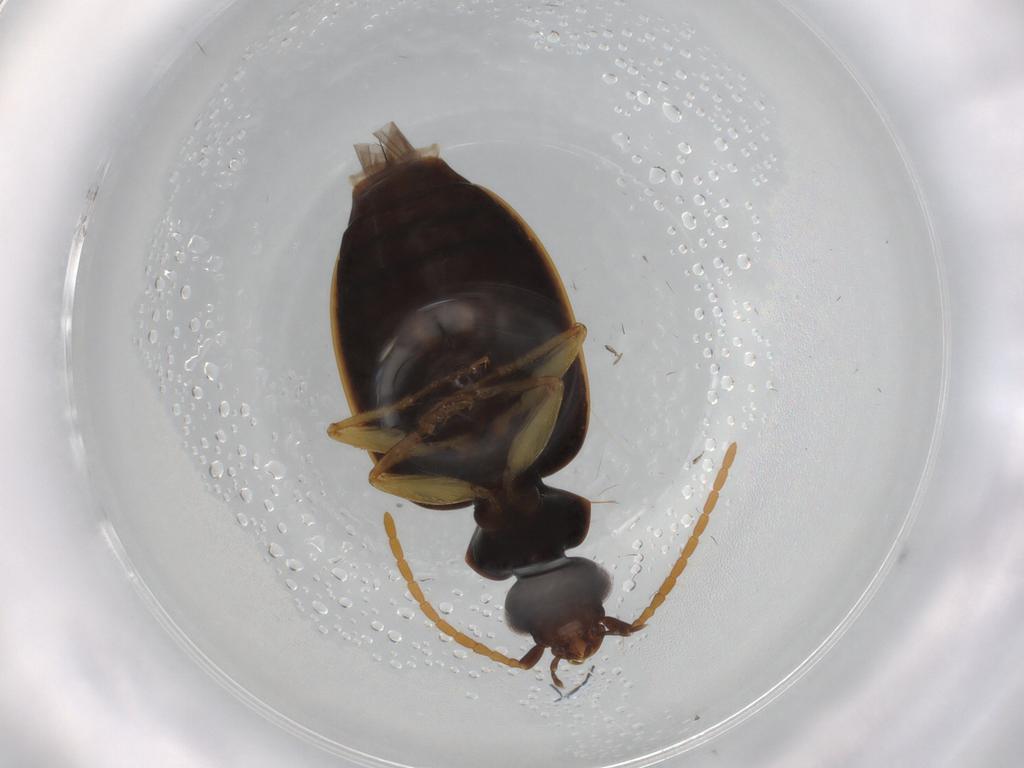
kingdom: Animalia
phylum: Arthropoda
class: Insecta
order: Coleoptera
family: Carabidae
